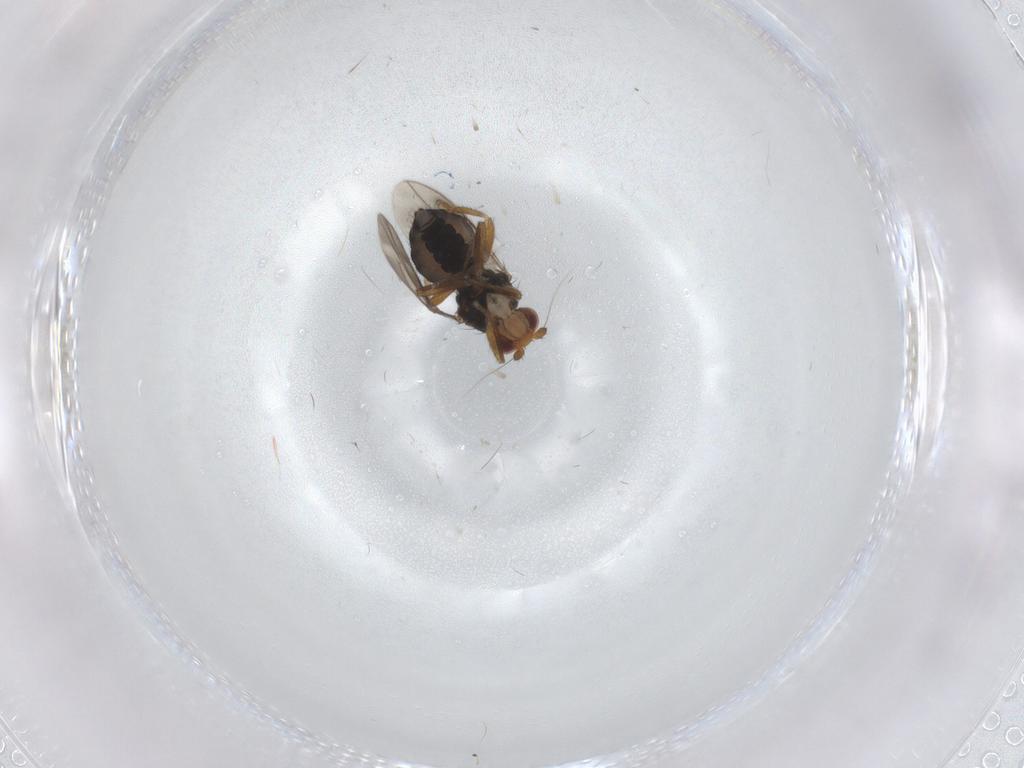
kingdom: Animalia
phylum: Arthropoda
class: Insecta
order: Diptera
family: Sphaeroceridae
